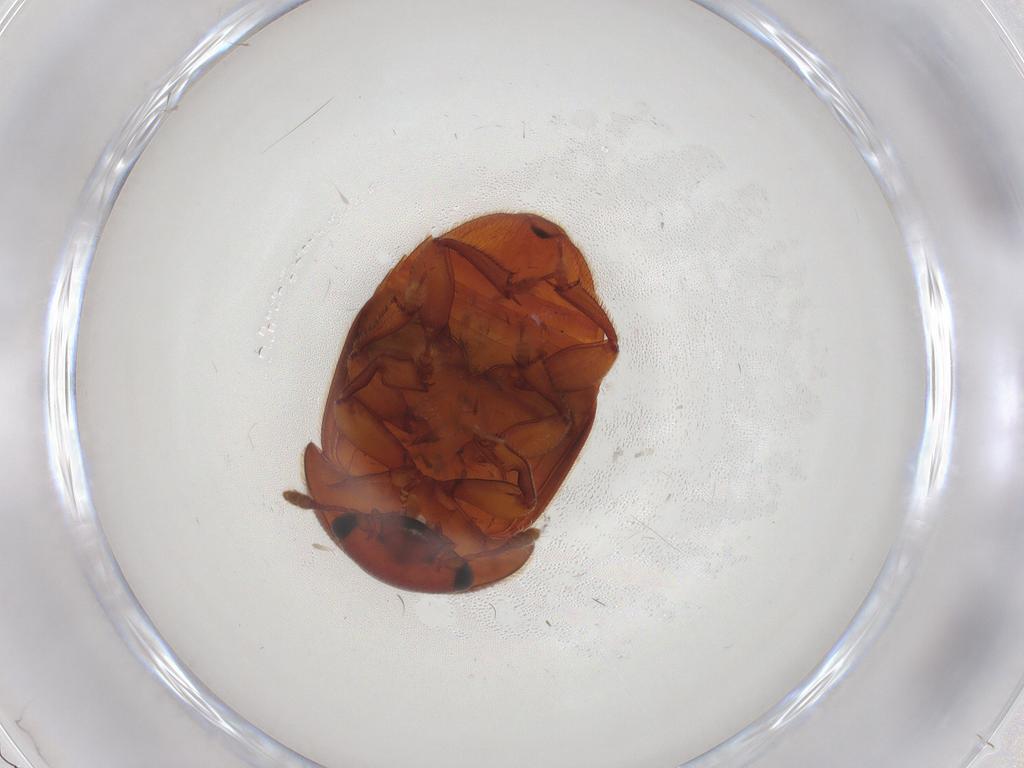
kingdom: Animalia
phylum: Arthropoda
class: Insecta
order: Coleoptera
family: Nitidulidae
